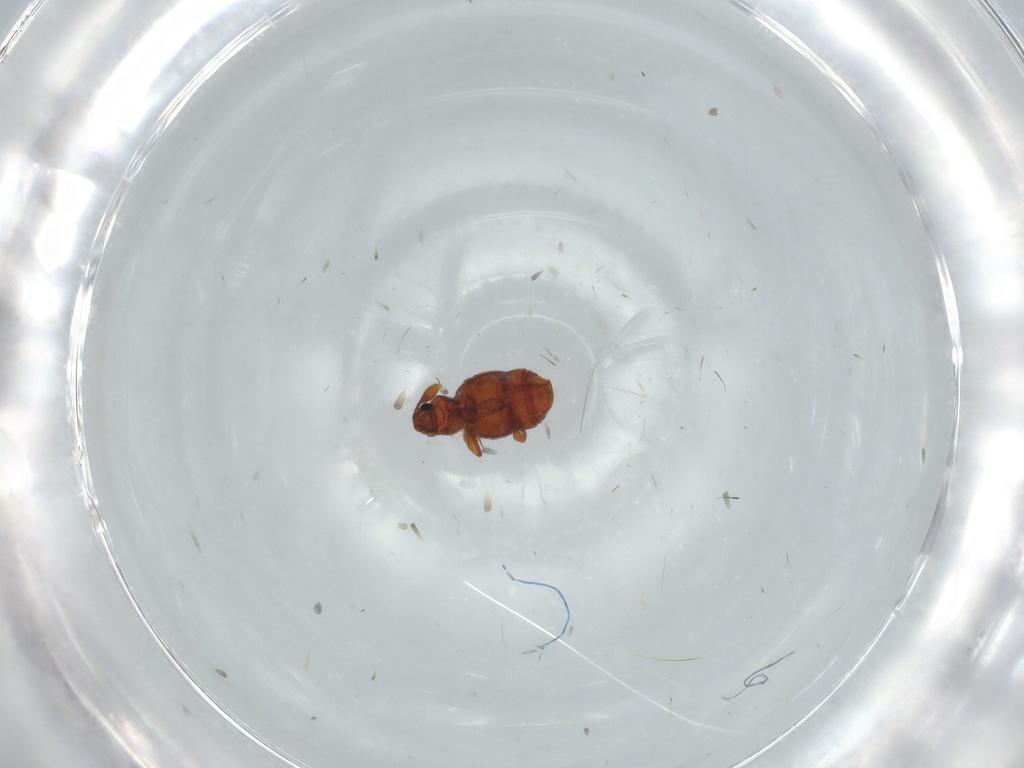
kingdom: Animalia
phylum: Arthropoda
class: Insecta
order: Coleoptera
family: Staphylinidae
